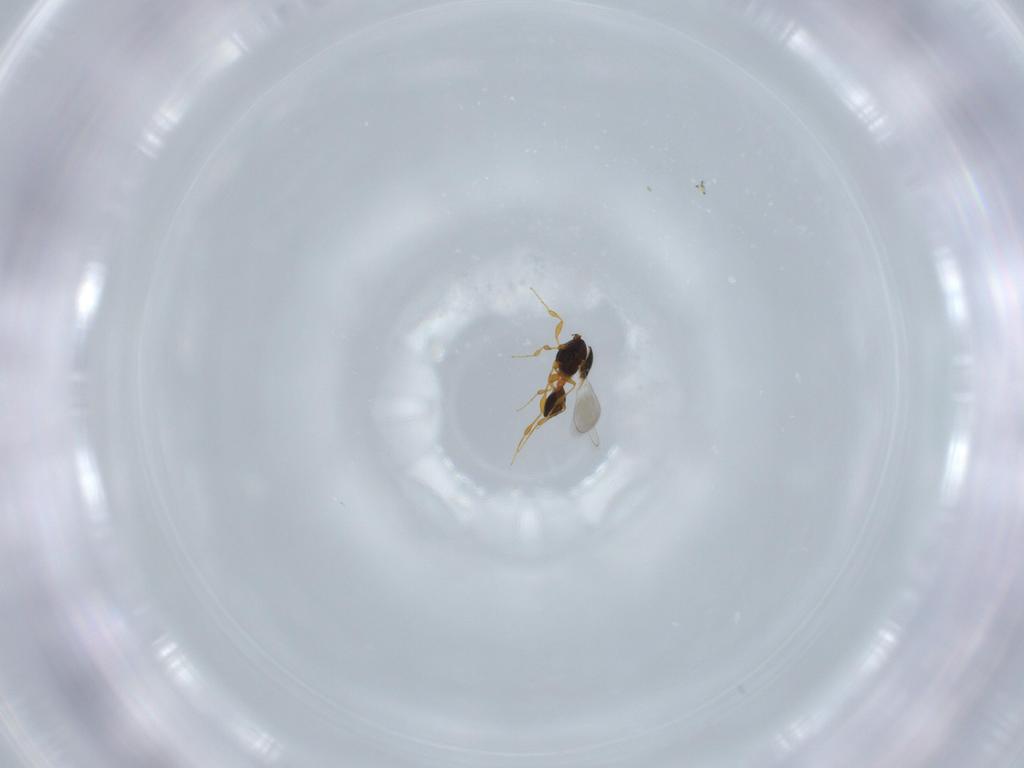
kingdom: Animalia
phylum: Arthropoda
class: Insecta
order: Hymenoptera
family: Platygastridae
